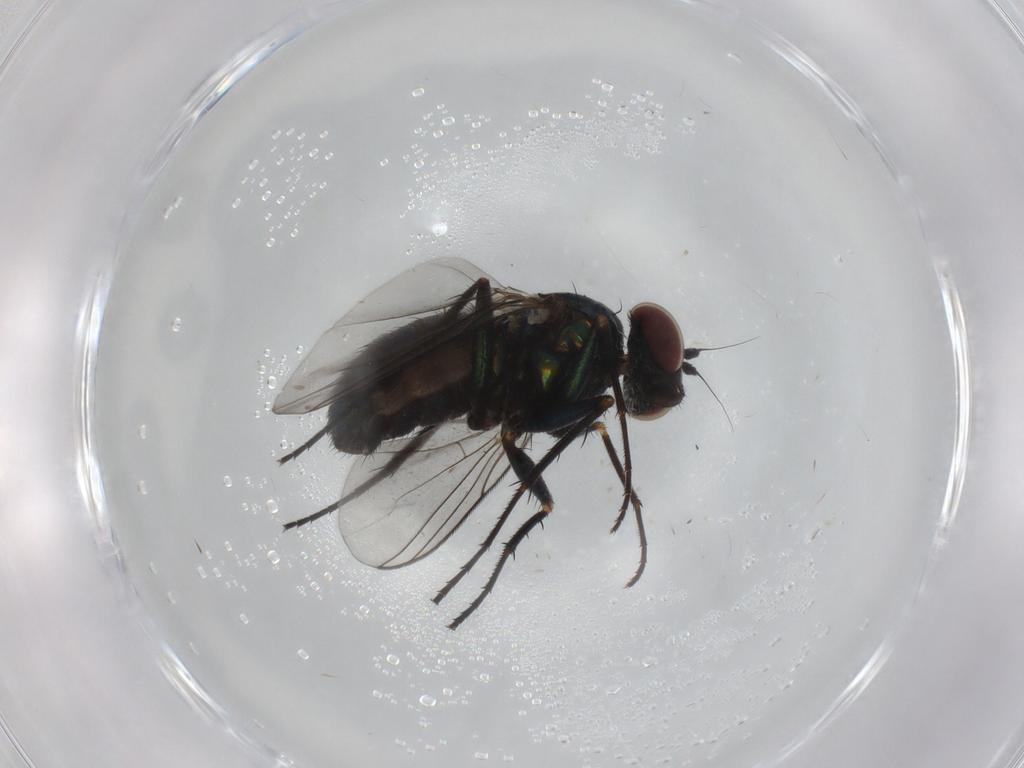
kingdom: Animalia
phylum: Arthropoda
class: Insecta
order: Diptera
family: Dolichopodidae
